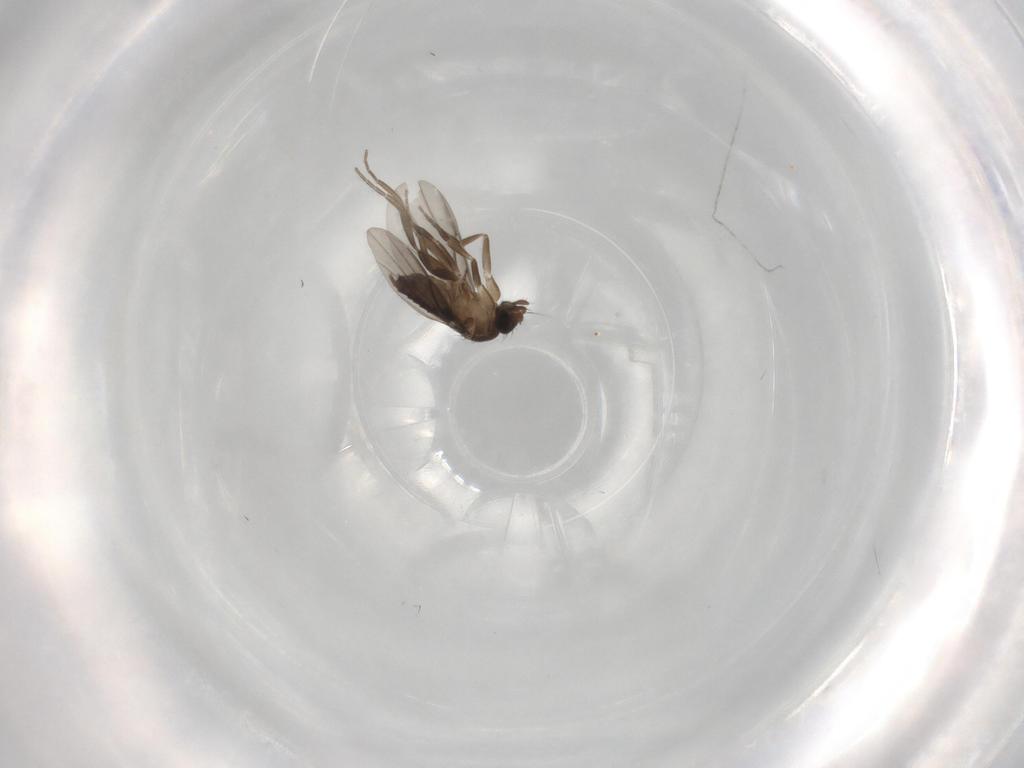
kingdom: Animalia
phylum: Arthropoda
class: Insecta
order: Diptera
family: Phoridae
